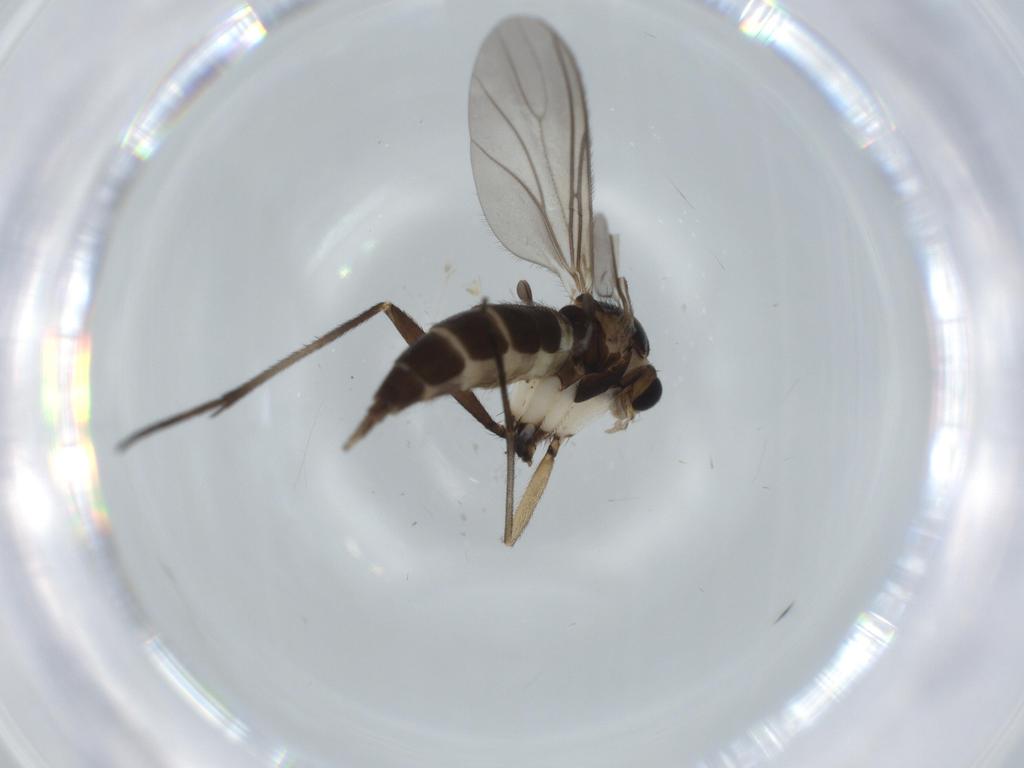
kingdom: Animalia
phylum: Arthropoda
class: Insecta
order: Diptera
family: Sciaridae
